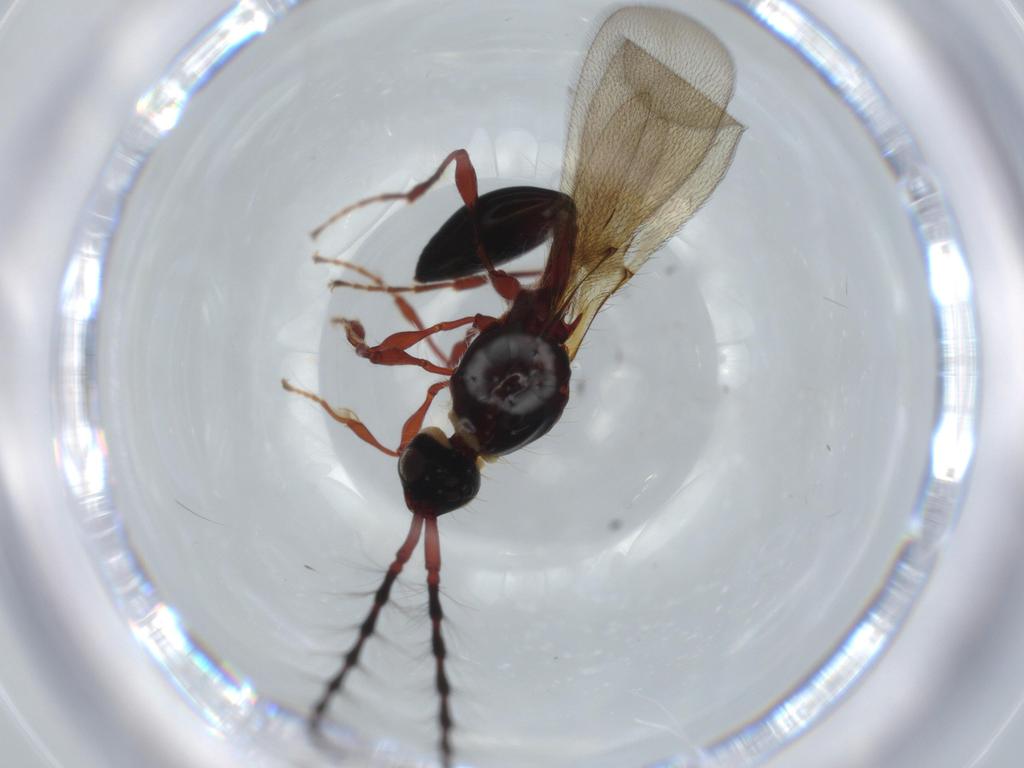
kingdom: Animalia
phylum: Arthropoda
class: Insecta
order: Hymenoptera
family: Diapriidae
